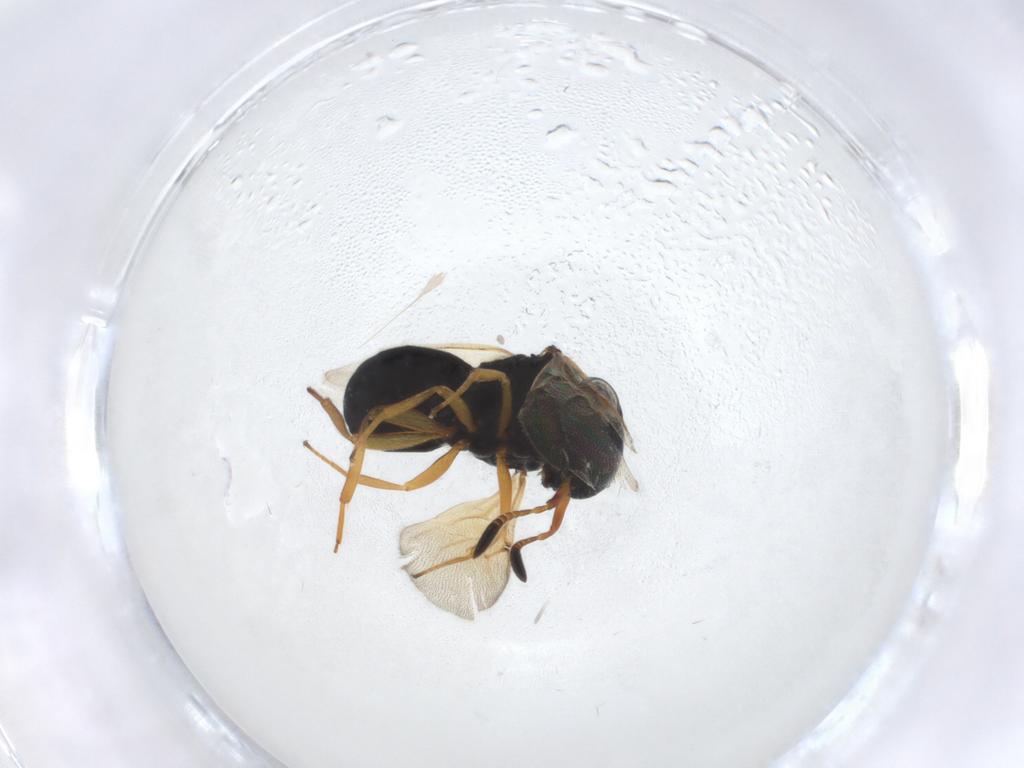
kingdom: Animalia
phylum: Arthropoda
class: Insecta
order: Hymenoptera
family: Scelionidae
